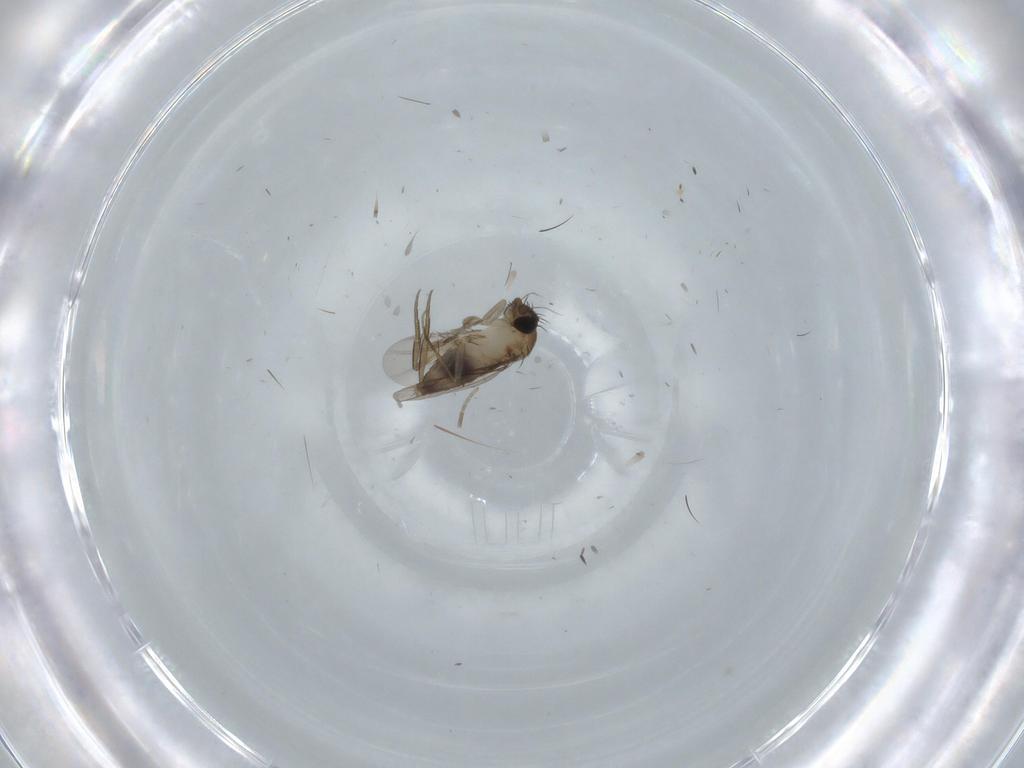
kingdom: Animalia
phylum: Arthropoda
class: Insecta
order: Diptera
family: Phoridae
